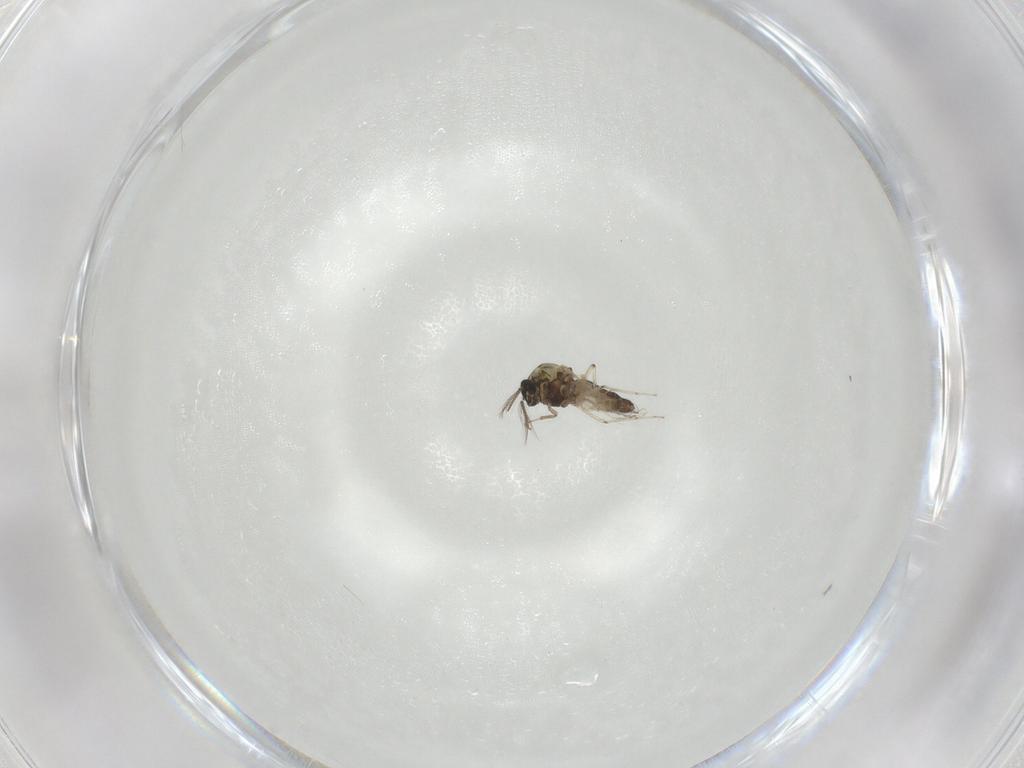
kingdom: Animalia
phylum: Arthropoda
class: Insecta
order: Diptera
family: Ceratopogonidae
